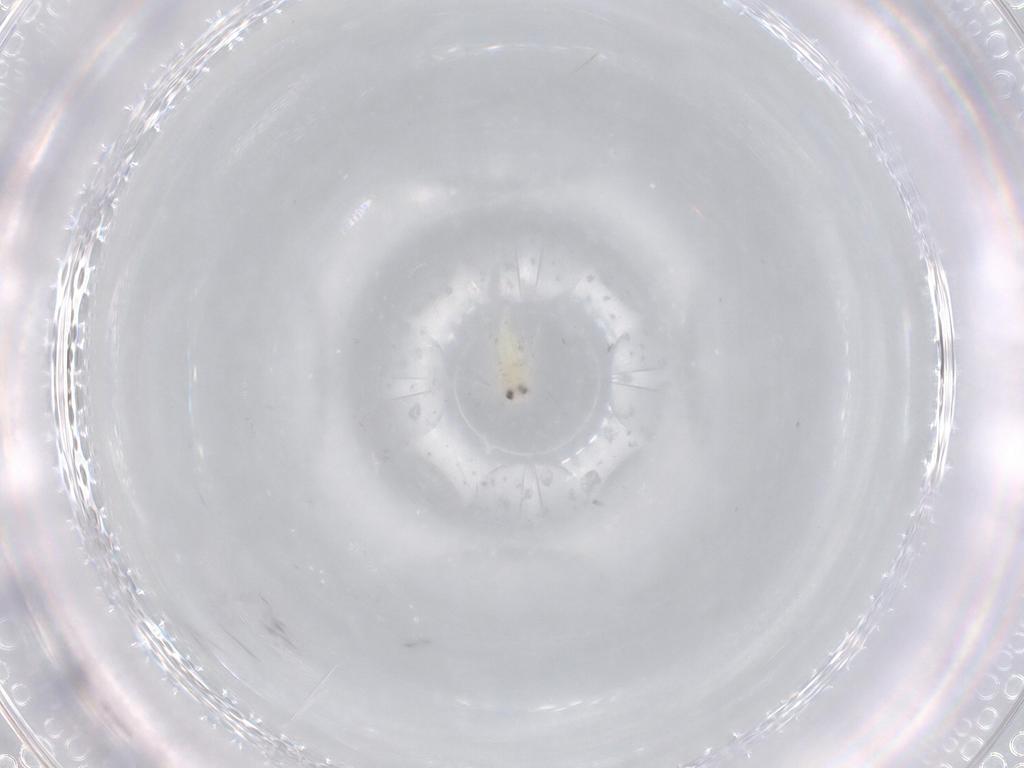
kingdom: Animalia
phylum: Arthropoda
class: Insecta
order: Hemiptera
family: Aleyrodidae
